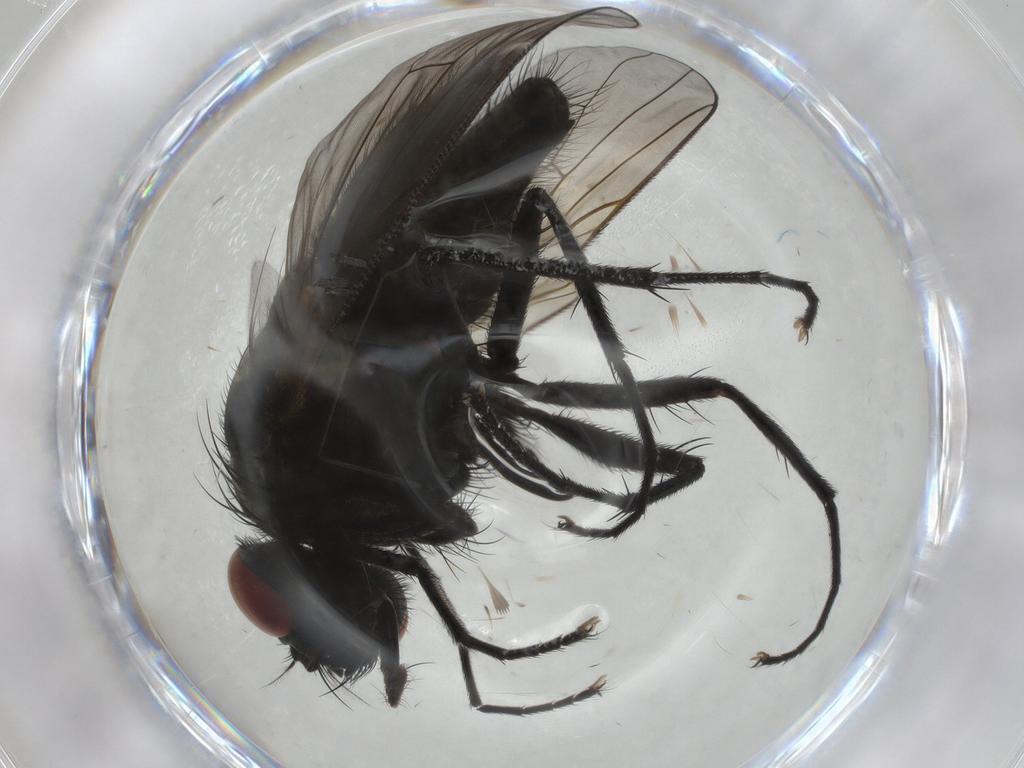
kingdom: Animalia
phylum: Arthropoda
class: Insecta
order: Diptera
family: Muscidae
